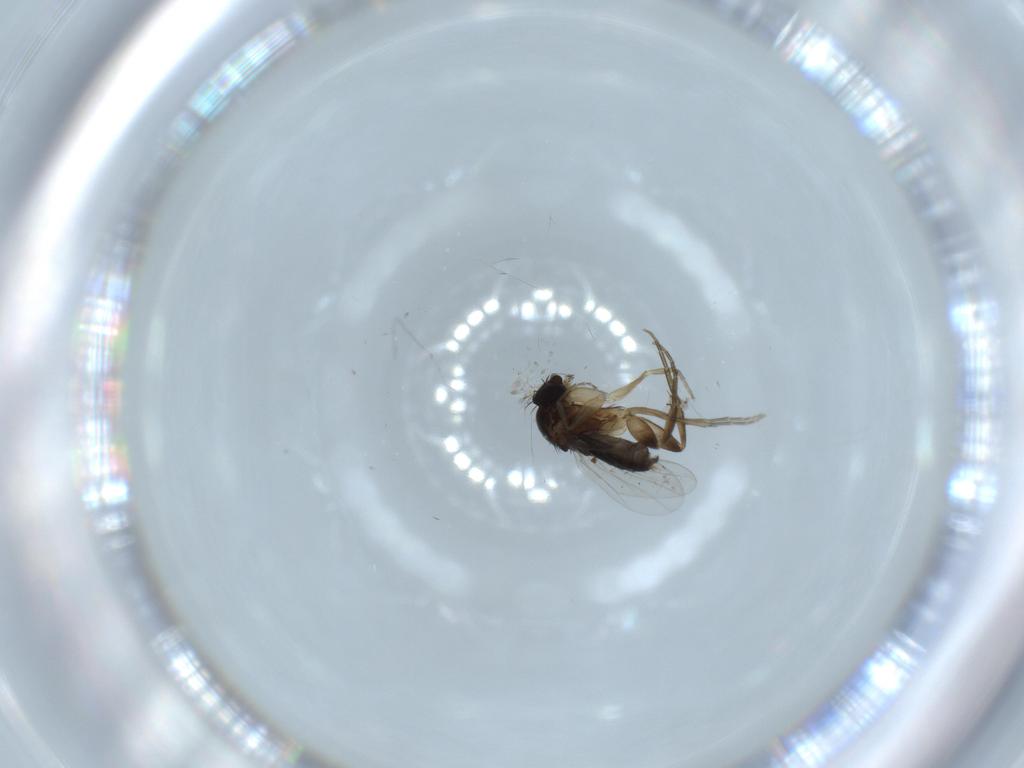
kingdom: Animalia
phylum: Arthropoda
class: Insecta
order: Diptera
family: Phoridae
